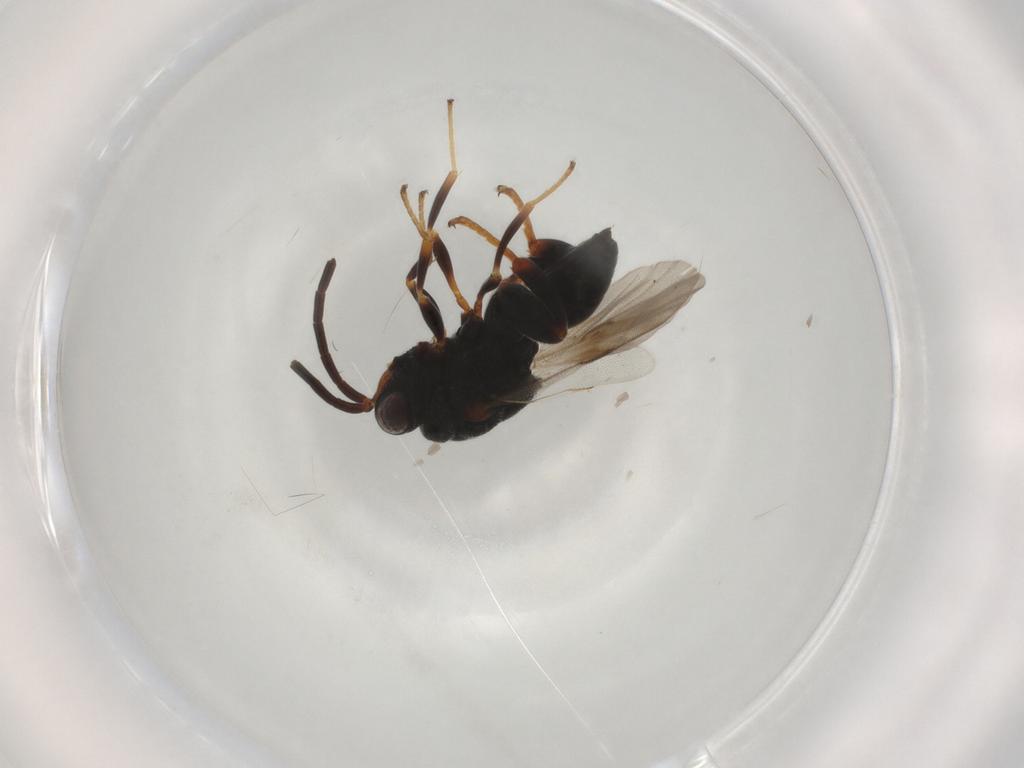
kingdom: Animalia
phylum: Arthropoda
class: Insecta
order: Hymenoptera
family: Chalcididae
